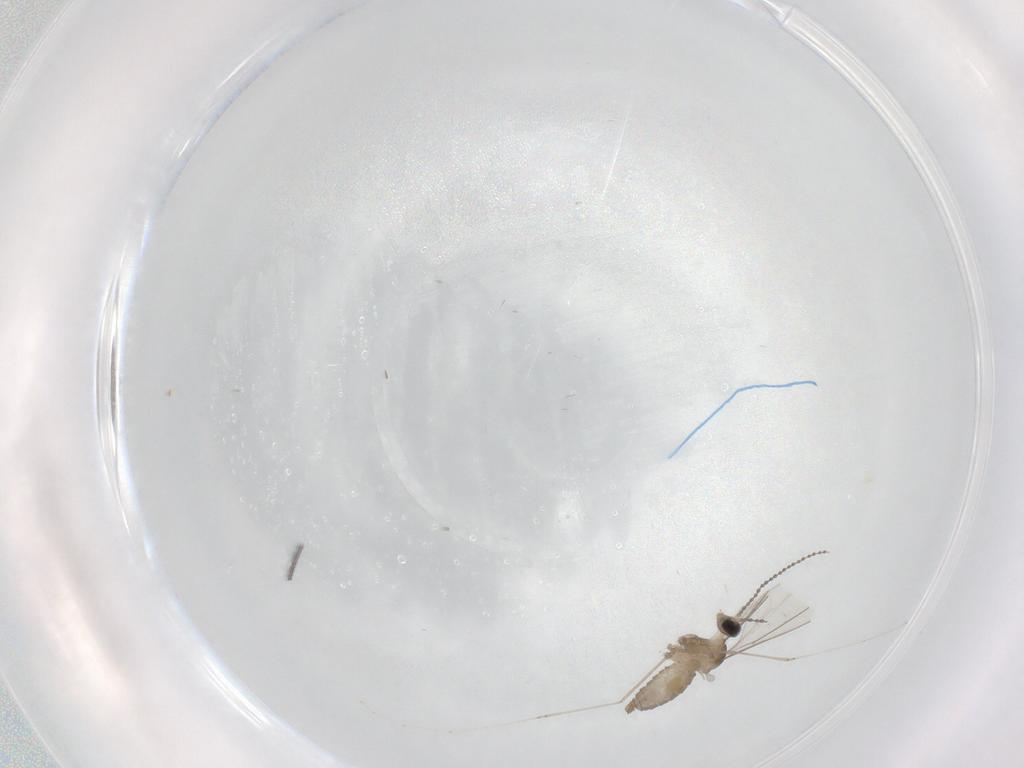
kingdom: Animalia
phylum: Arthropoda
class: Insecta
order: Diptera
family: Cecidomyiidae
